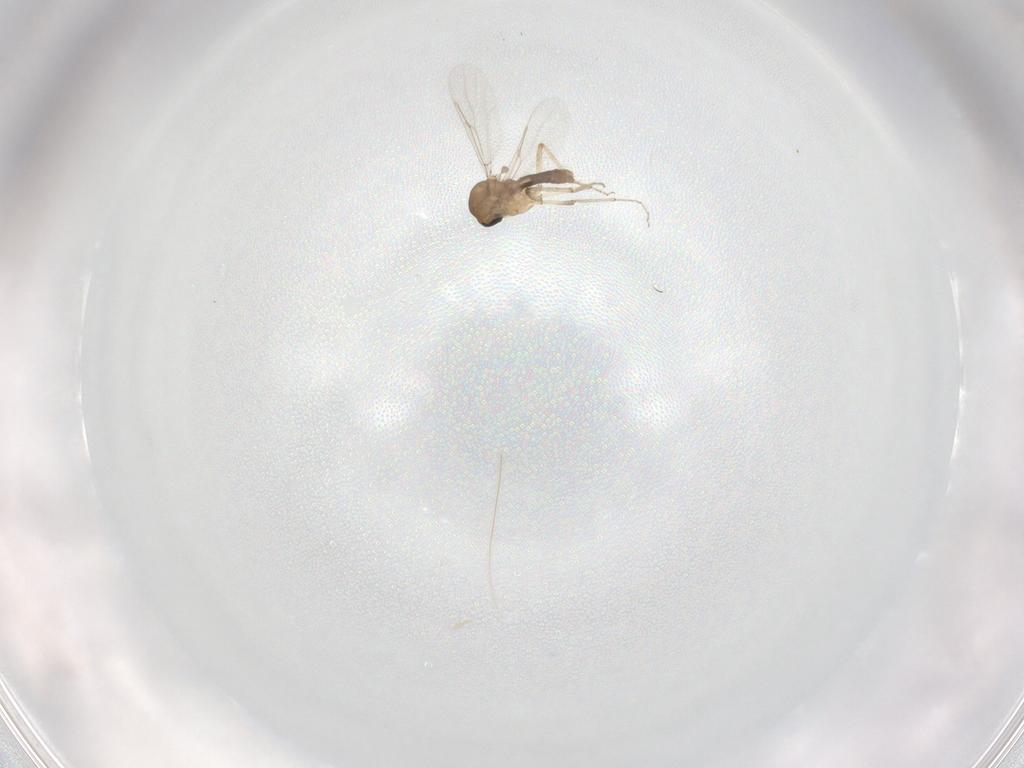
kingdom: Animalia
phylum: Arthropoda
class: Insecta
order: Diptera
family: Ceratopogonidae
